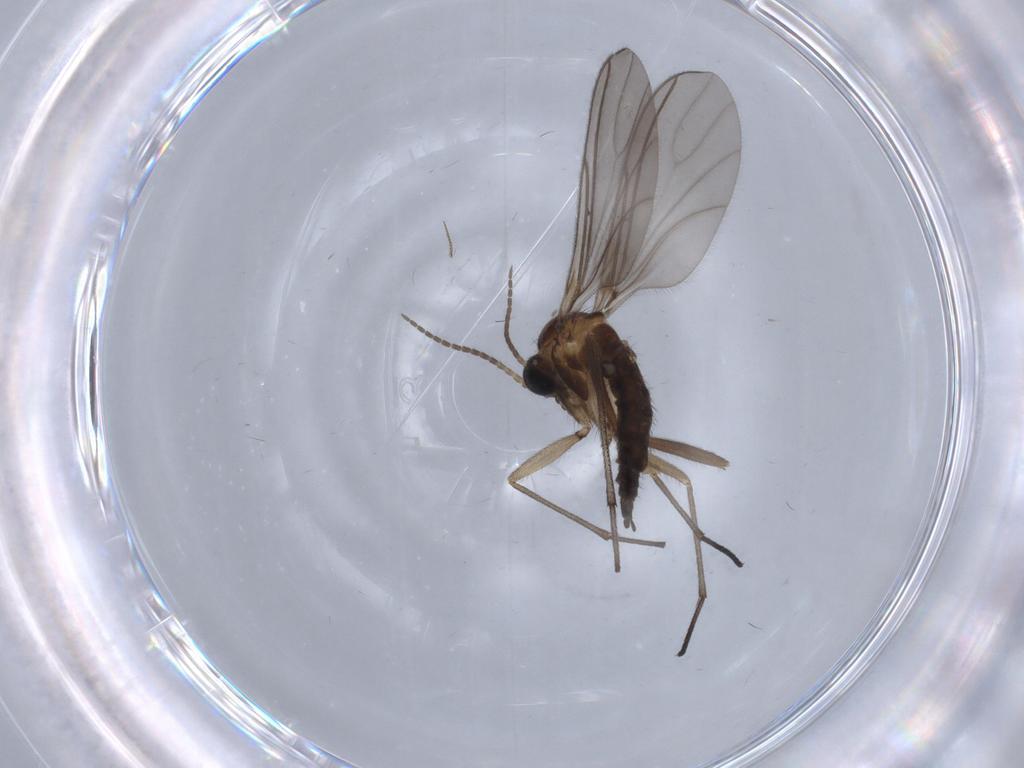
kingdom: Animalia
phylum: Arthropoda
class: Insecta
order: Diptera
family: Sciaridae
